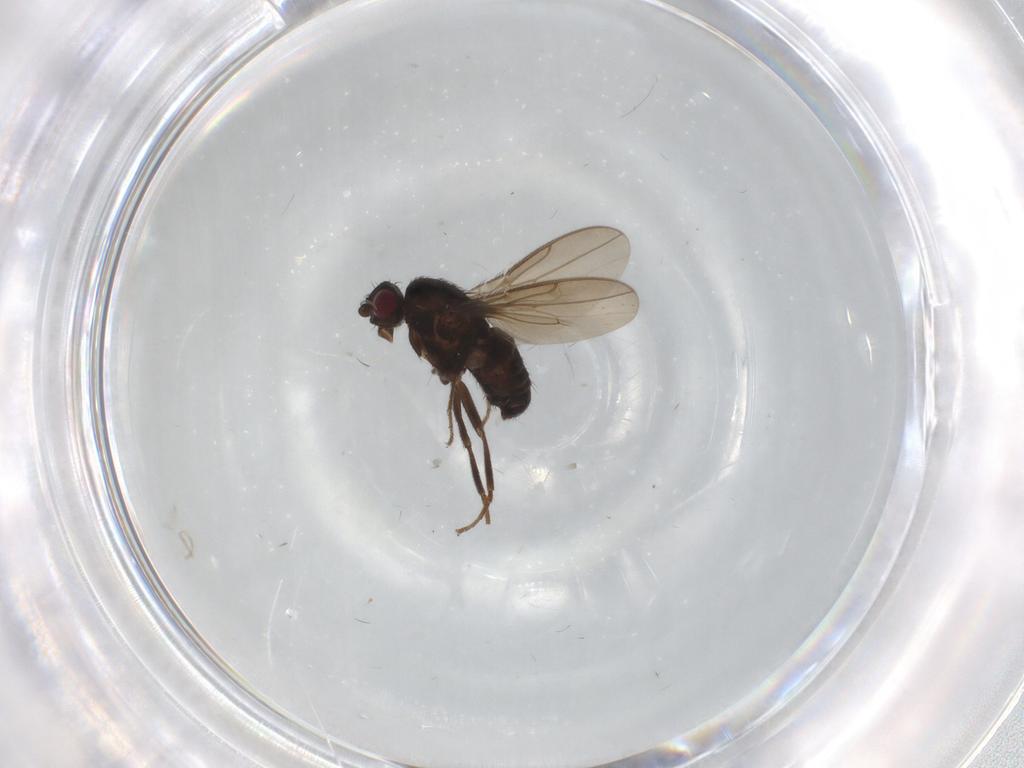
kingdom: Animalia
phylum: Arthropoda
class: Insecta
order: Diptera
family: Sphaeroceridae
